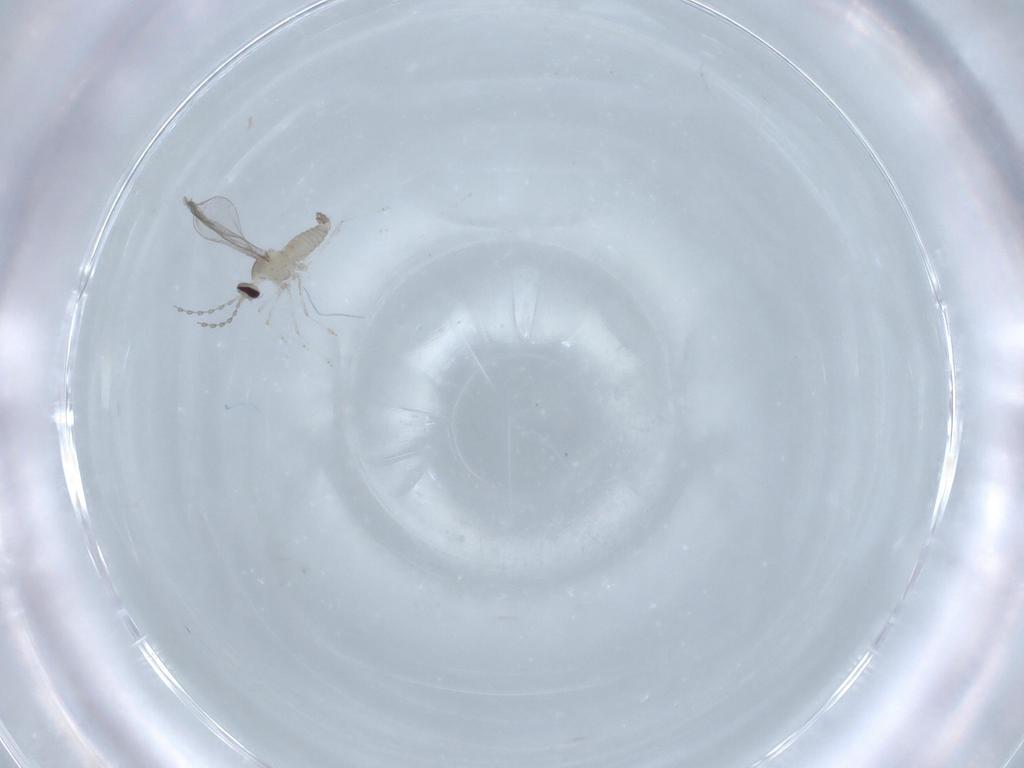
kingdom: Animalia
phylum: Arthropoda
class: Insecta
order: Diptera
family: Cecidomyiidae
